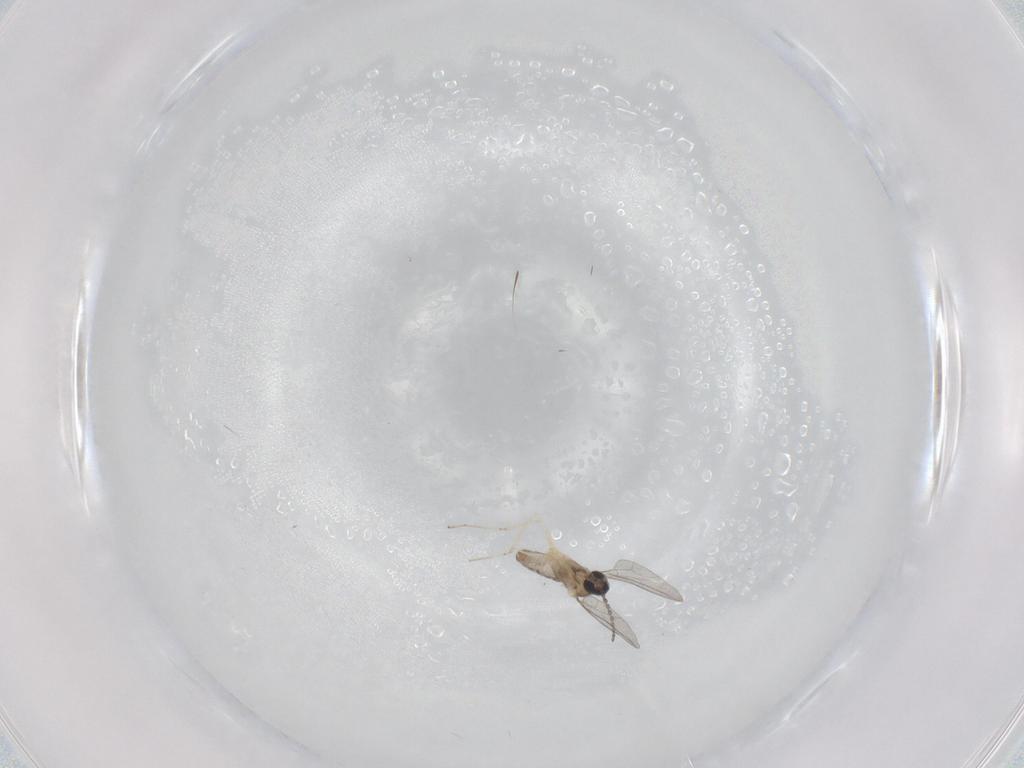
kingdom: Animalia
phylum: Arthropoda
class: Insecta
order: Diptera
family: Cecidomyiidae
